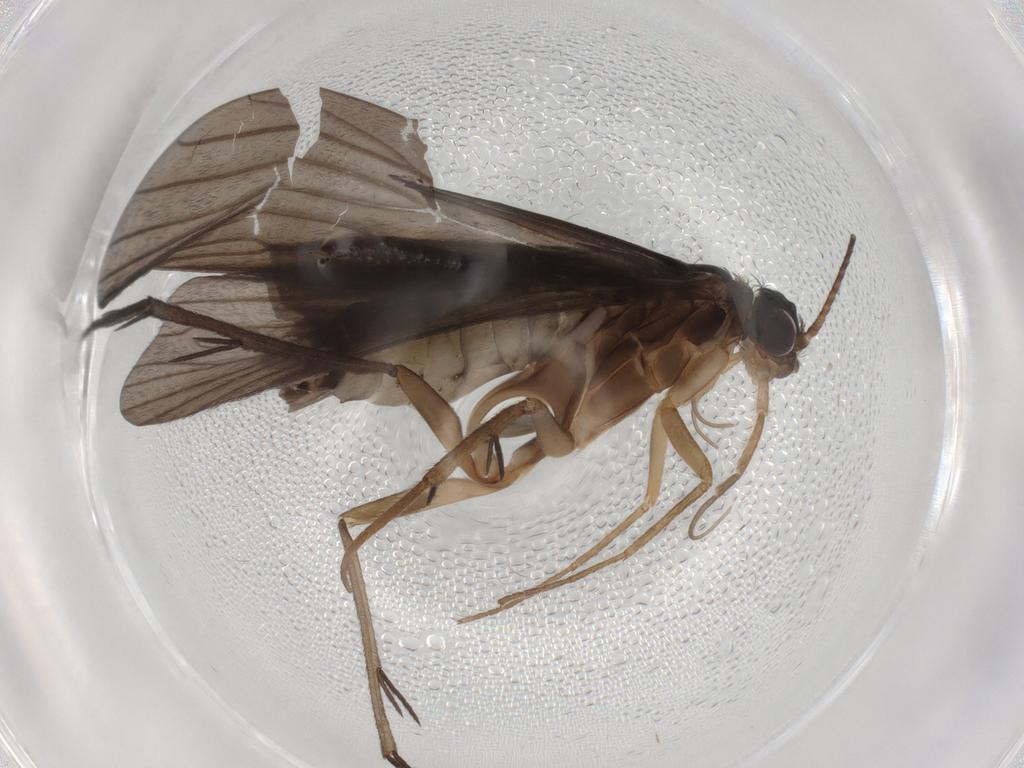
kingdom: Animalia
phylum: Arthropoda
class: Insecta
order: Trichoptera
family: Philopotamidae
